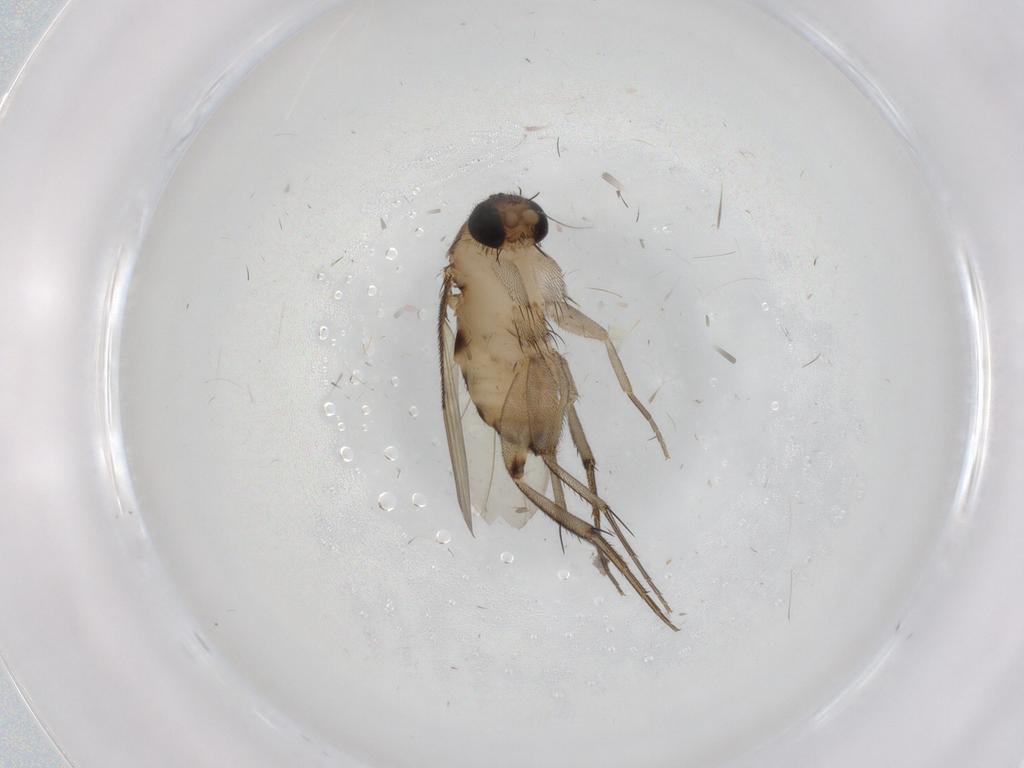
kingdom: Animalia
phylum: Arthropoda
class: Insecta
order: Diptera
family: Phoridae
